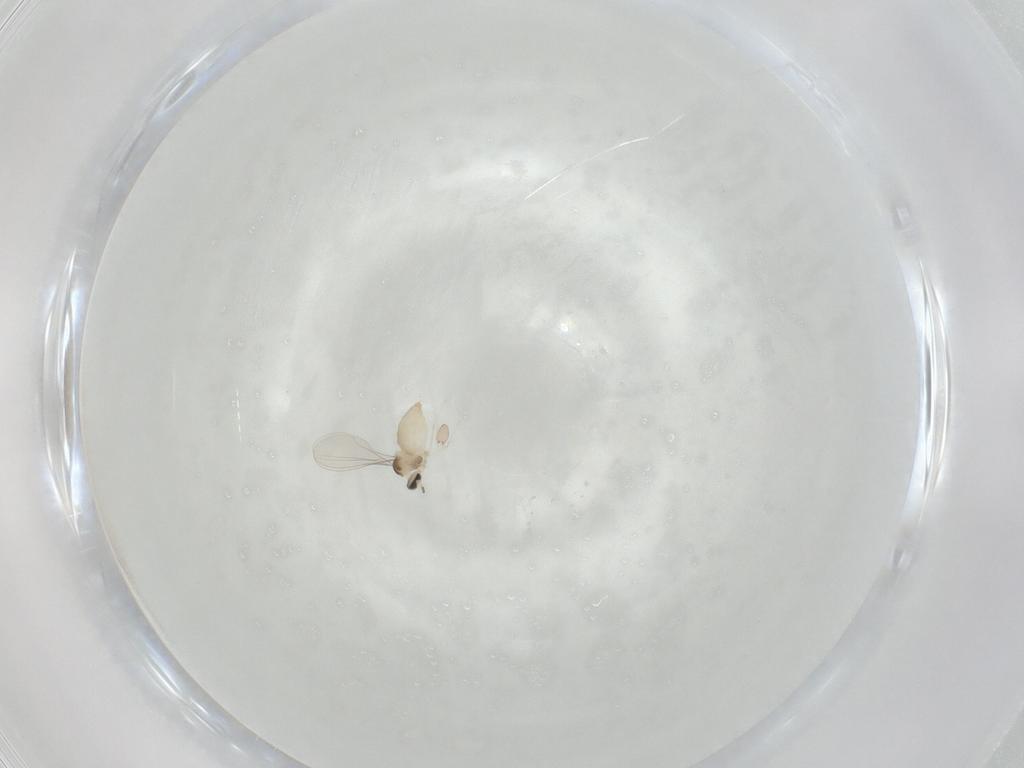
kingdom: Animalia
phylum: Arthropoda
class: Insecta
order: Diptera
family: Cecidomyiidae
